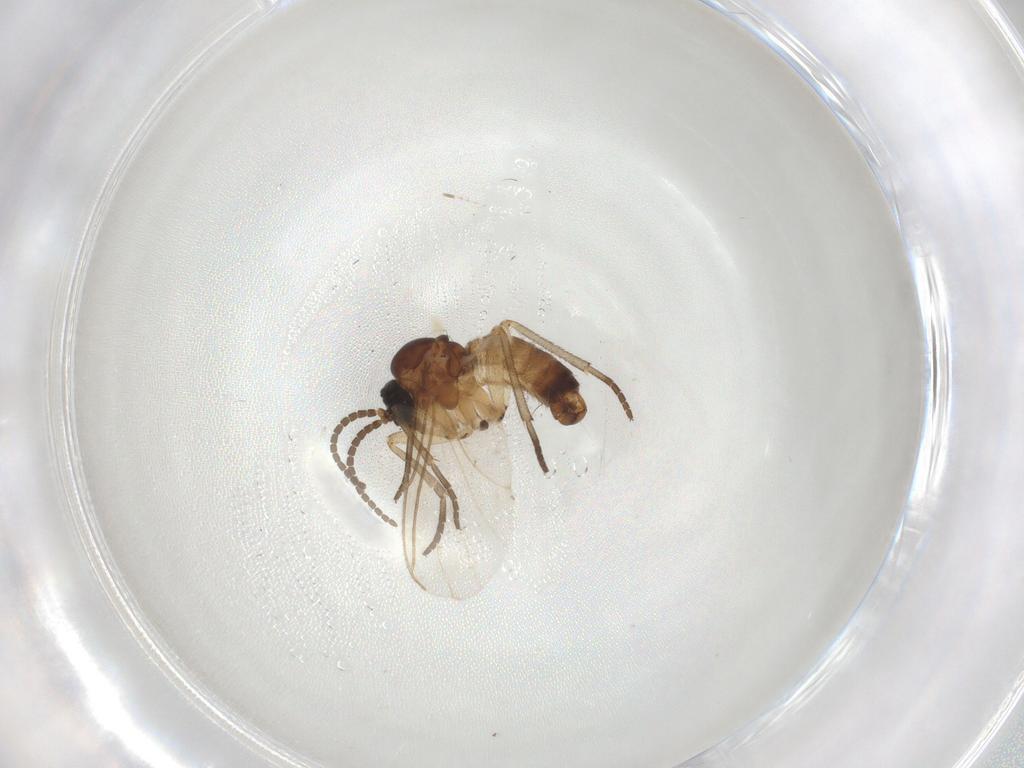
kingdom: Animalia
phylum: Arthropoda
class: Insecta
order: Diptera
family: Sciaridae
